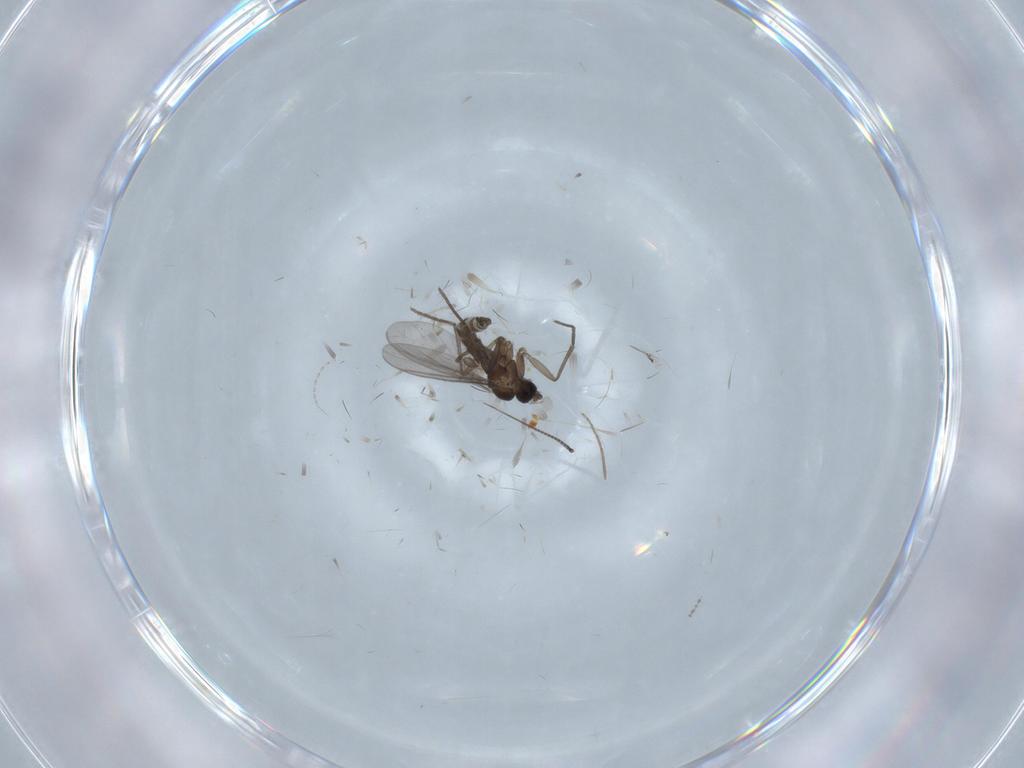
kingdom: Animalia
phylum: Arthropoda
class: Insecta
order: Diptera
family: Sciaridae
